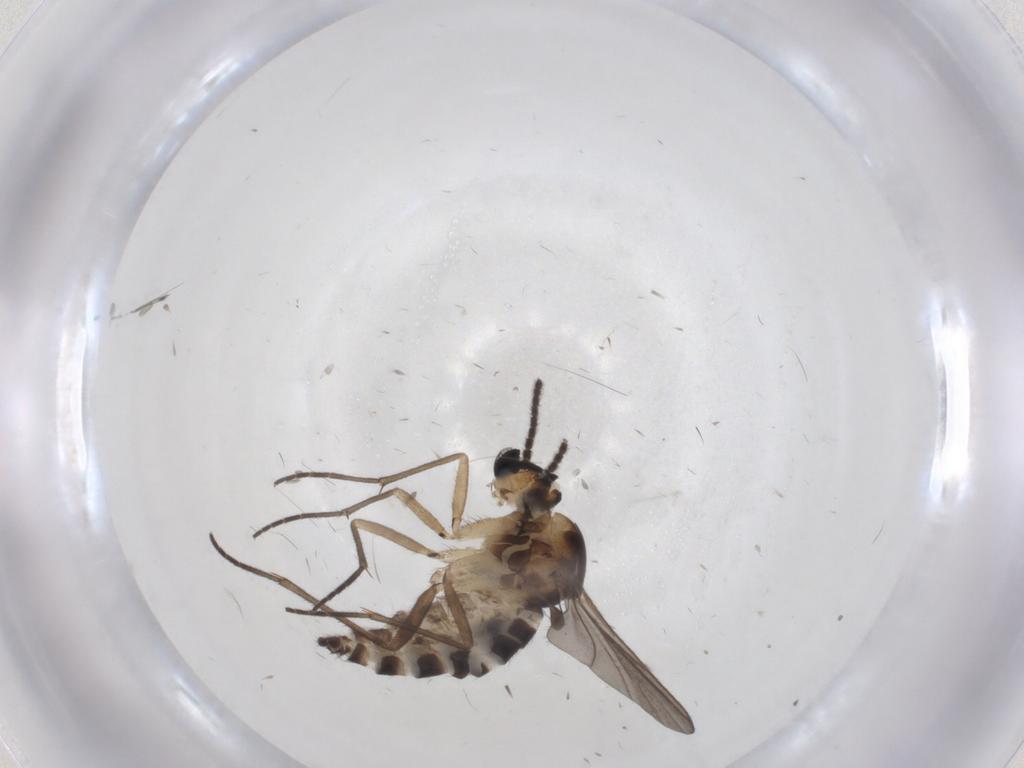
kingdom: Animalia
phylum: Arthropoda
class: Insecta
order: Diptera
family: Sciaridae
